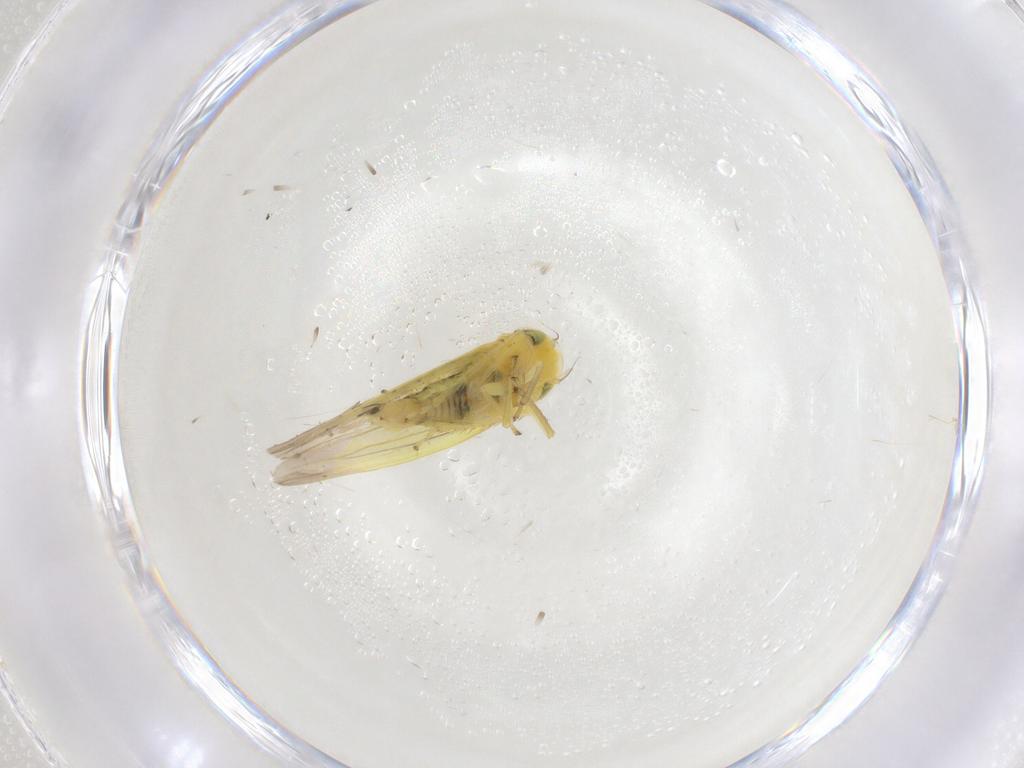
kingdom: Animalia
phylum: Arthropoda
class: Insecta
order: Hemiptera
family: Cicadellidae
